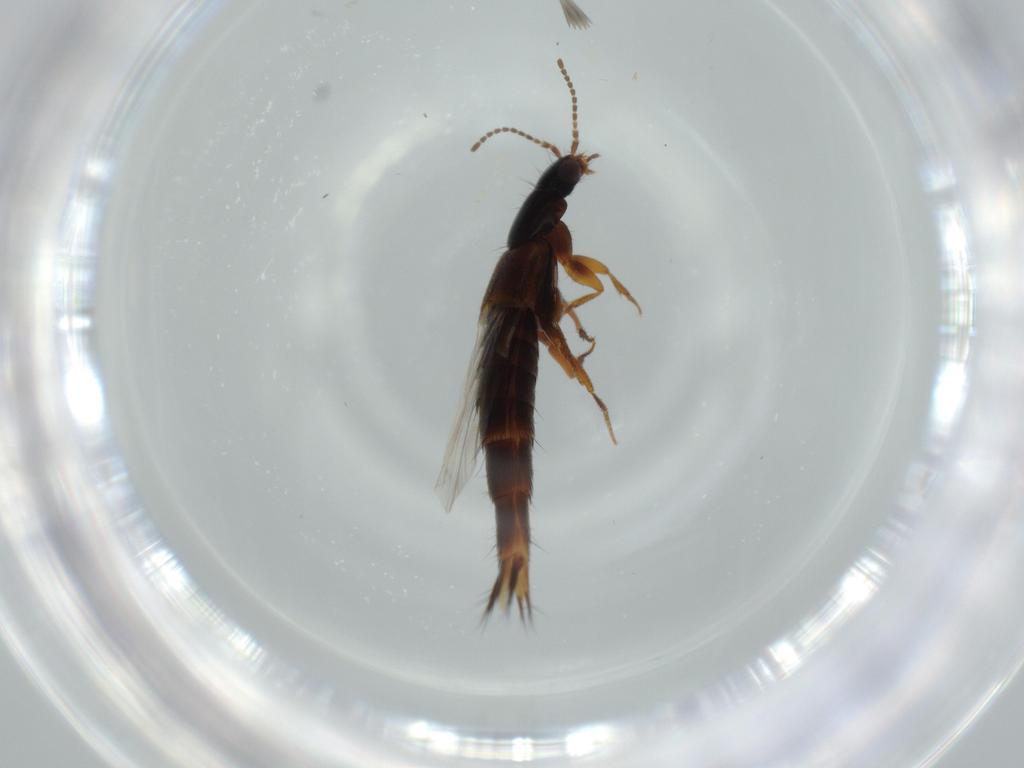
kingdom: Animalia
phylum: Arthropoda
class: Insecta
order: Coleoptera
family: Staphylinidae
